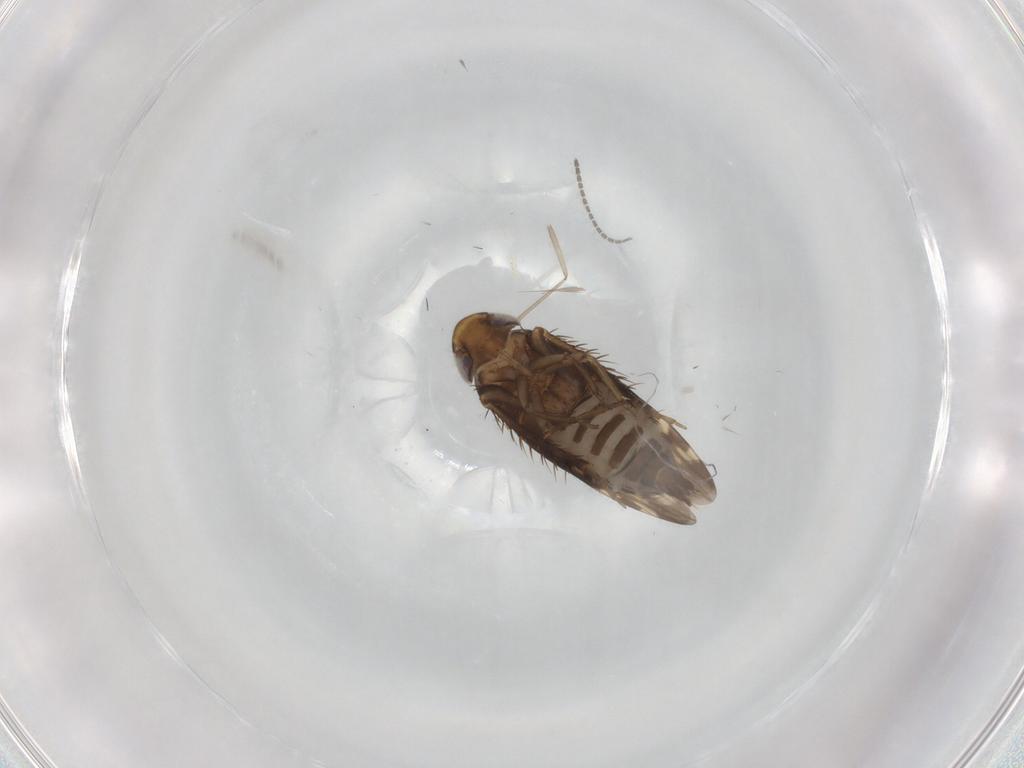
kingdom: Animalia
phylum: Arthropoda
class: Insecta
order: Hemiptera
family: Cicadellidae
